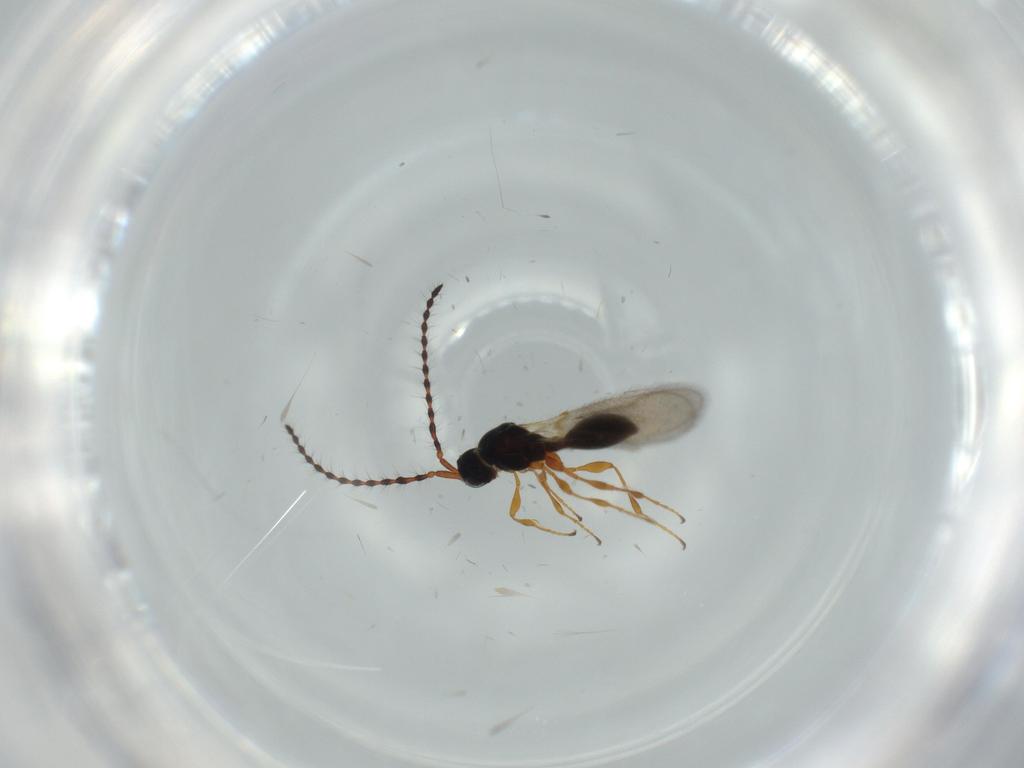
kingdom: Animalia
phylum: Arthropoda
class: Insecta
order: Hymenoptera
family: Diapriidae
